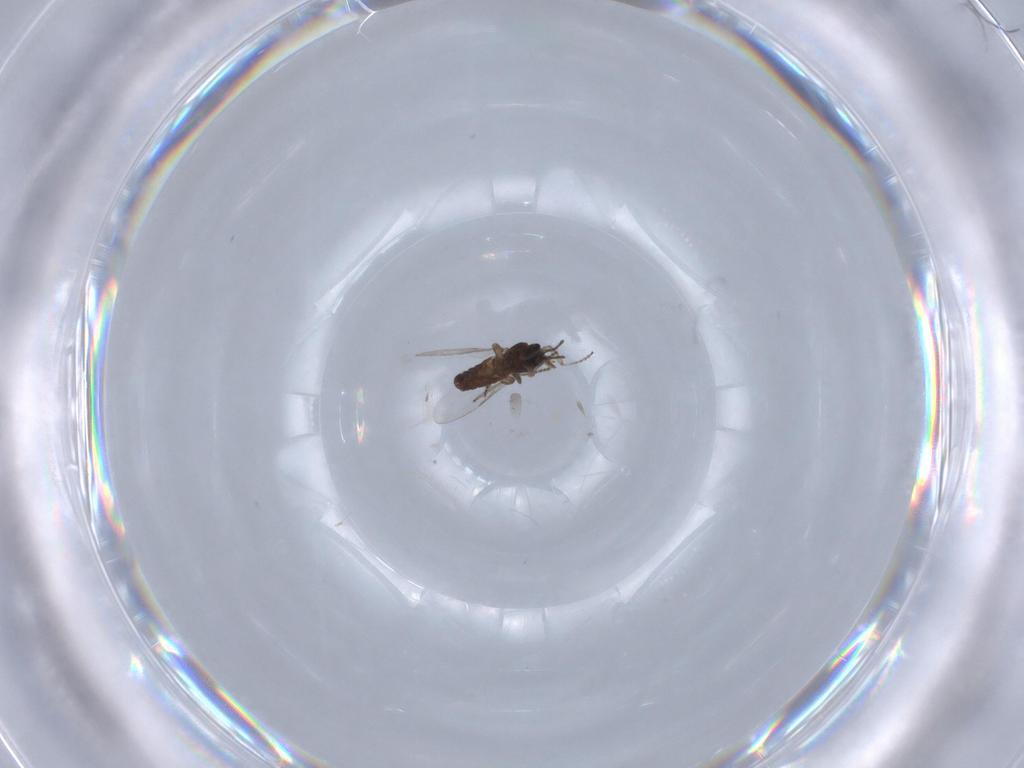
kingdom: Animalia
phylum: Arthropoda
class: Insecta
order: Diptera
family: Ceratopogonidae
